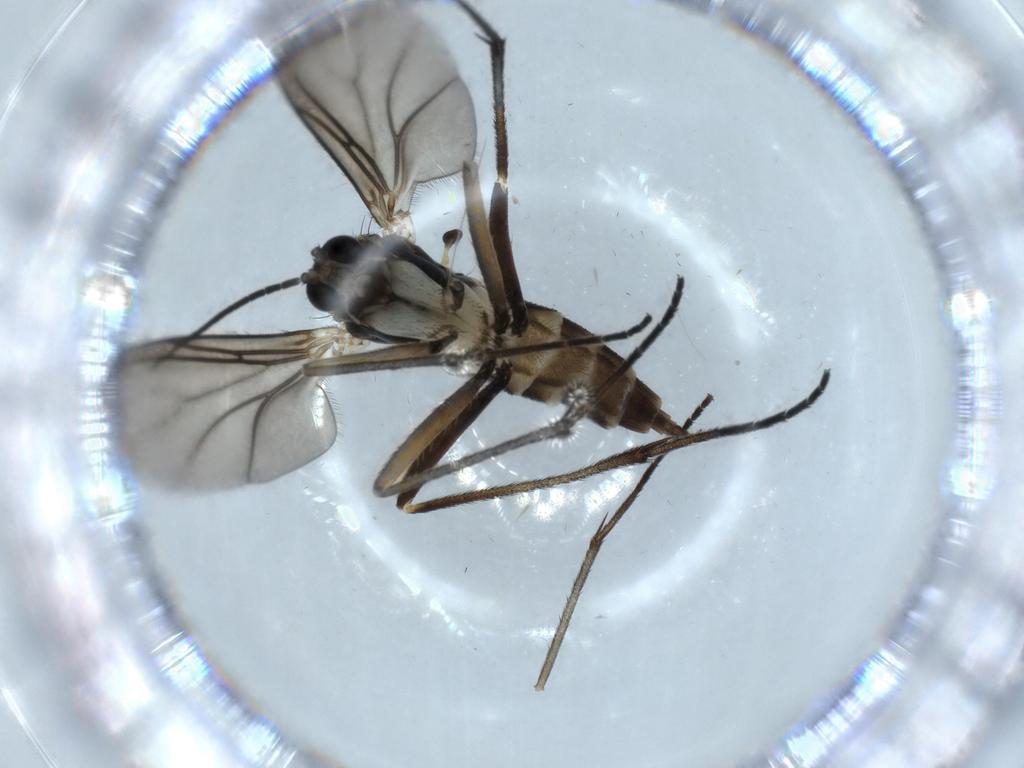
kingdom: Animalia
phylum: Arthropoda
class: Insecta
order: Diptera
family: Sciaridae
